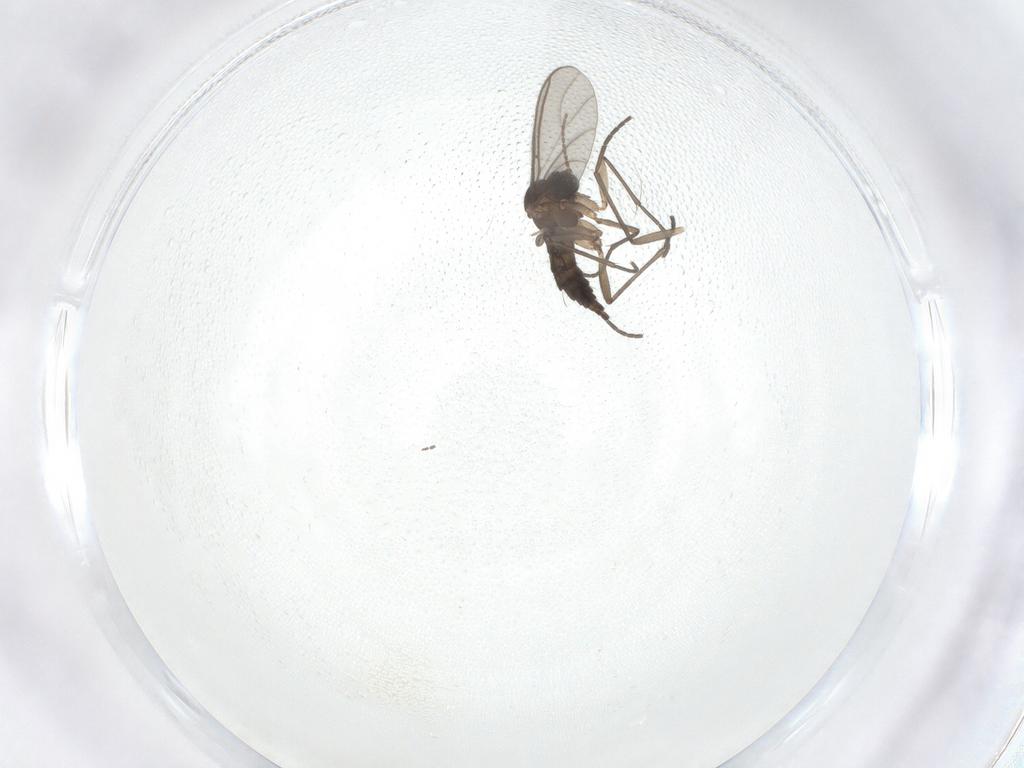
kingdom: Animalia
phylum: Arthropoda
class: Insecta
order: Diptera
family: Sciaridae
